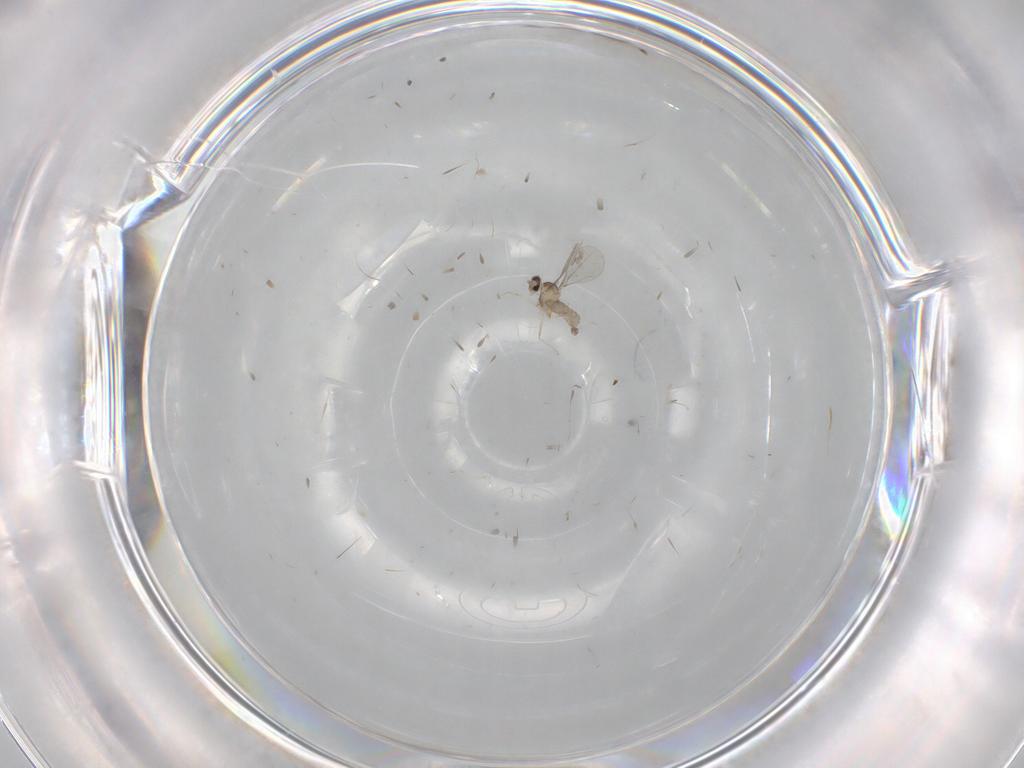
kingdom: Animalia
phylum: Arthropoda
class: Insecta
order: Diptera
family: Cecidomyiidae
